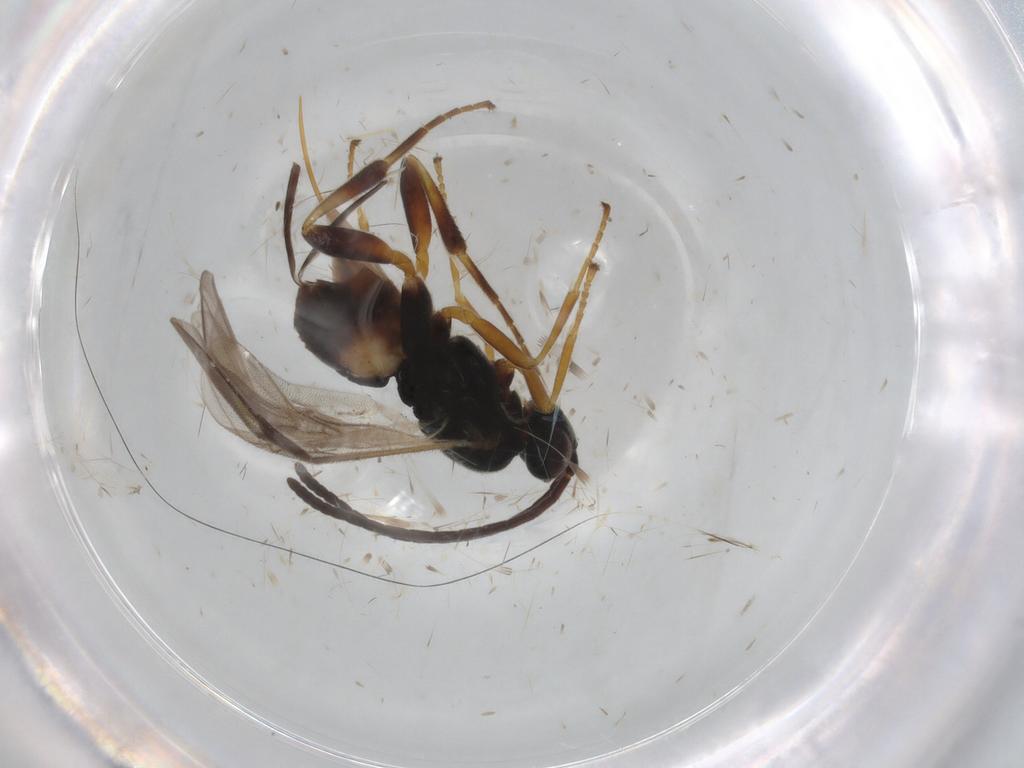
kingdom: Animalia
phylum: Arthropoda
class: Insecta
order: Hymenoptera
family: Braconidae
